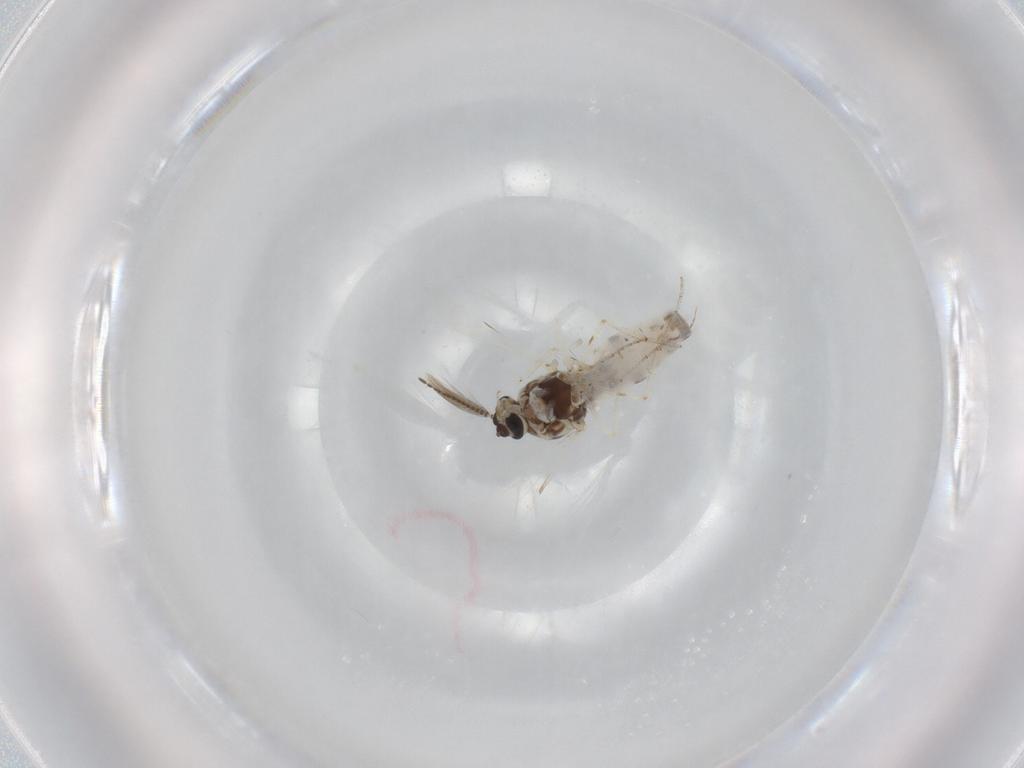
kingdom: Animalia
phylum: Arthropoda
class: Insecta
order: Diptera
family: Ceratopogonidae
